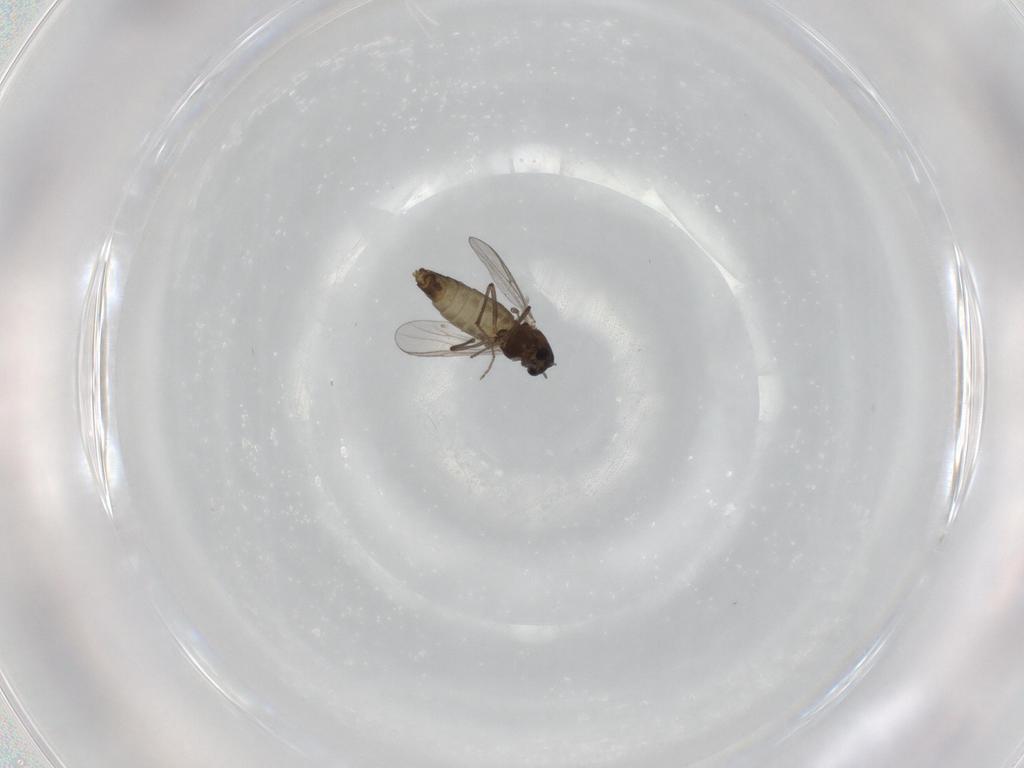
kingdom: Animalia
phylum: Arthropoda
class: Insecta
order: Diptera
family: Chironomidae
